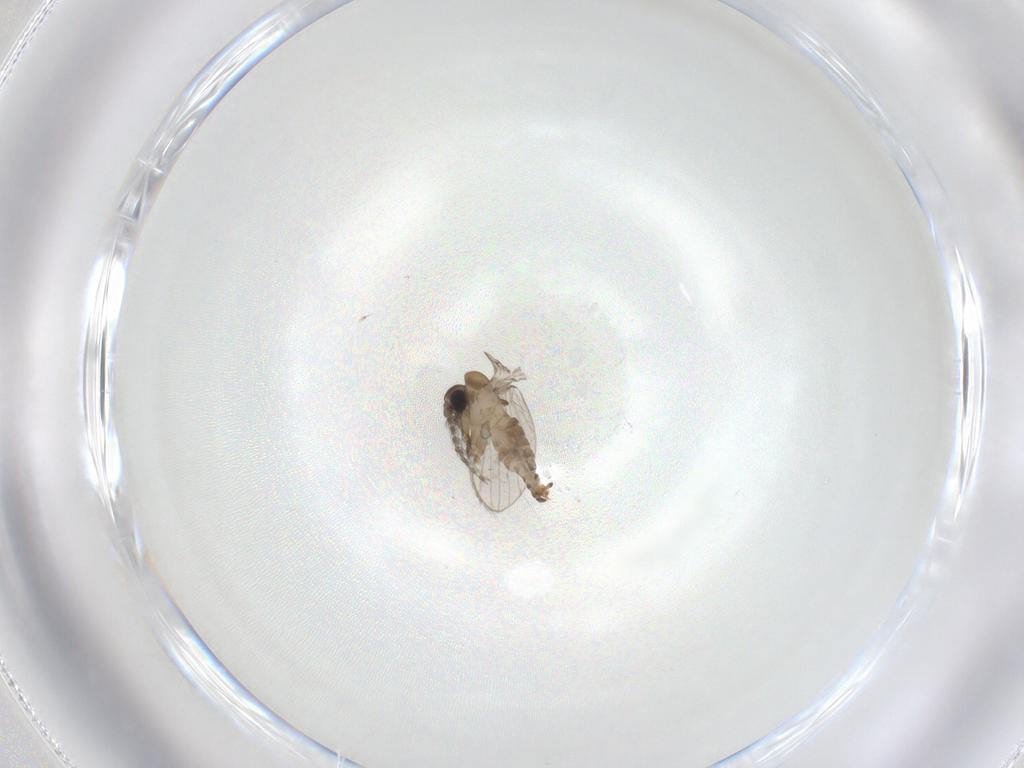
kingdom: Animalia
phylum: Arthropoda
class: Insecta
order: Diptera
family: Psychodidae
